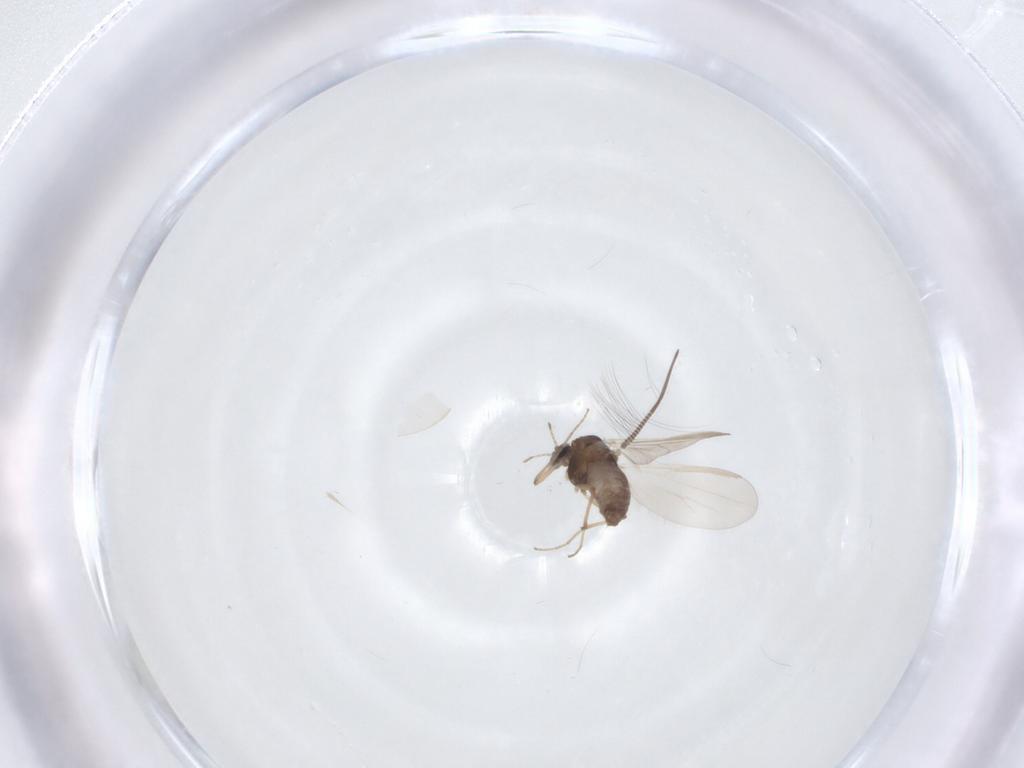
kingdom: Animalia
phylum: Arthropoda
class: Insecta
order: Diptera
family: Chironomidae
